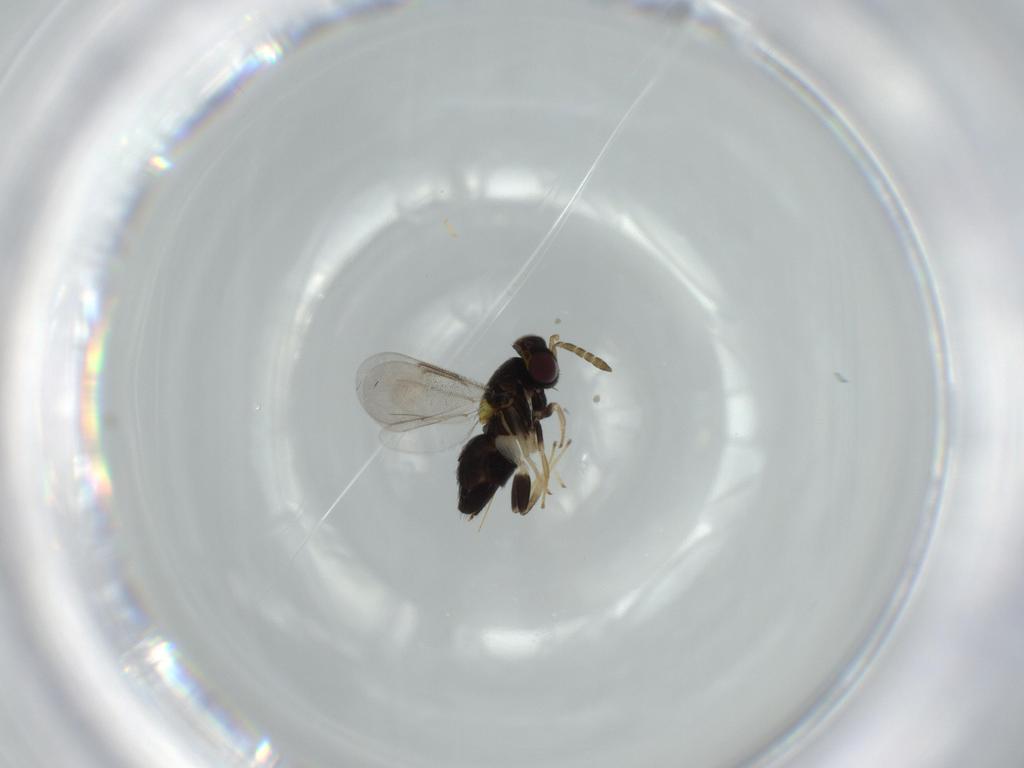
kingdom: Animalia
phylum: Arthropoda
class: Insecta
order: Hymenoptera
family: Aphelinidae
